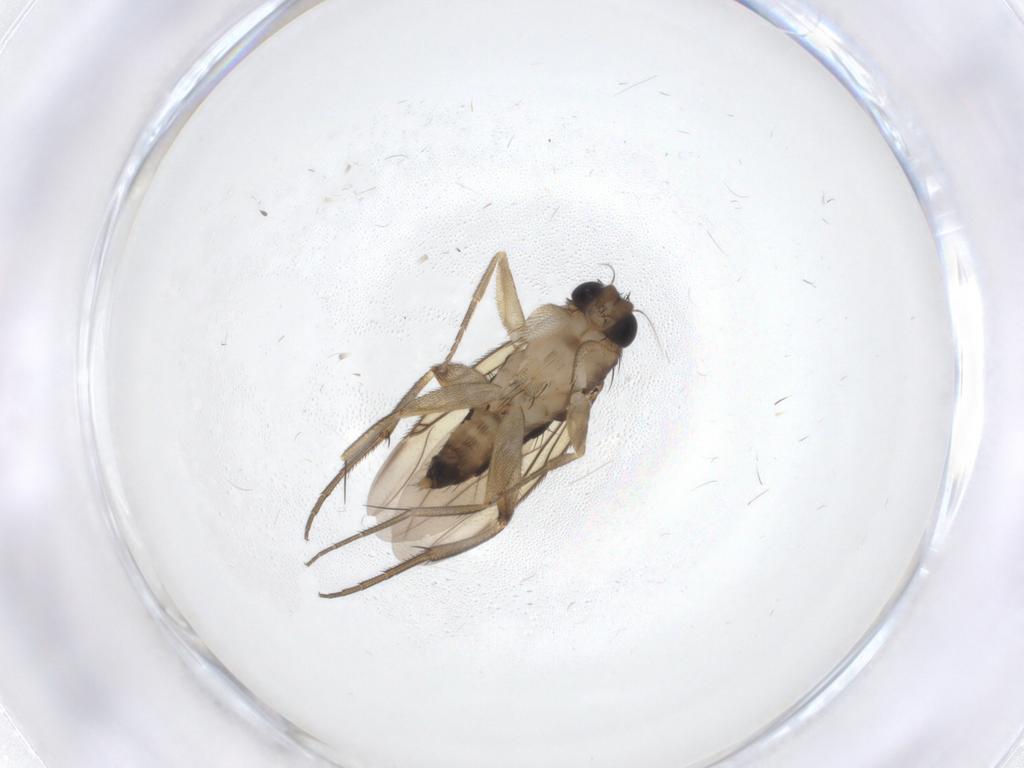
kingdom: Animalia
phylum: Arthropoda
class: Insecta
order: Diptera
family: Phoridae
